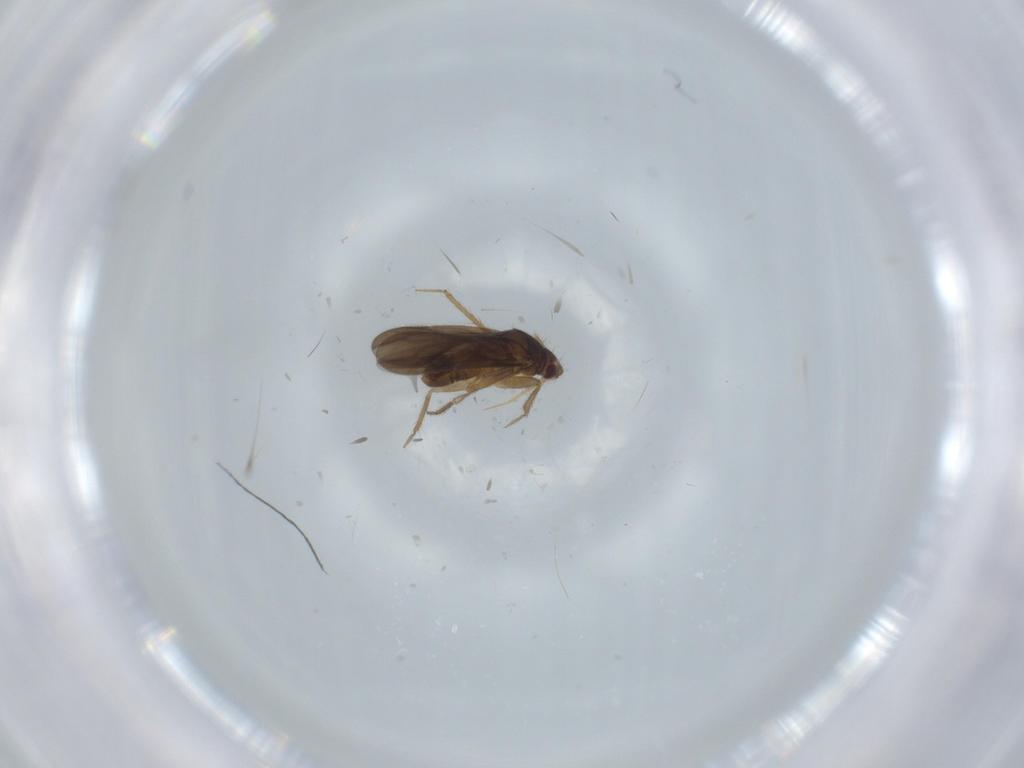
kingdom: Animalia
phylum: Arthropoda
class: Insecta
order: Hemiptera
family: Ceratocombidae
